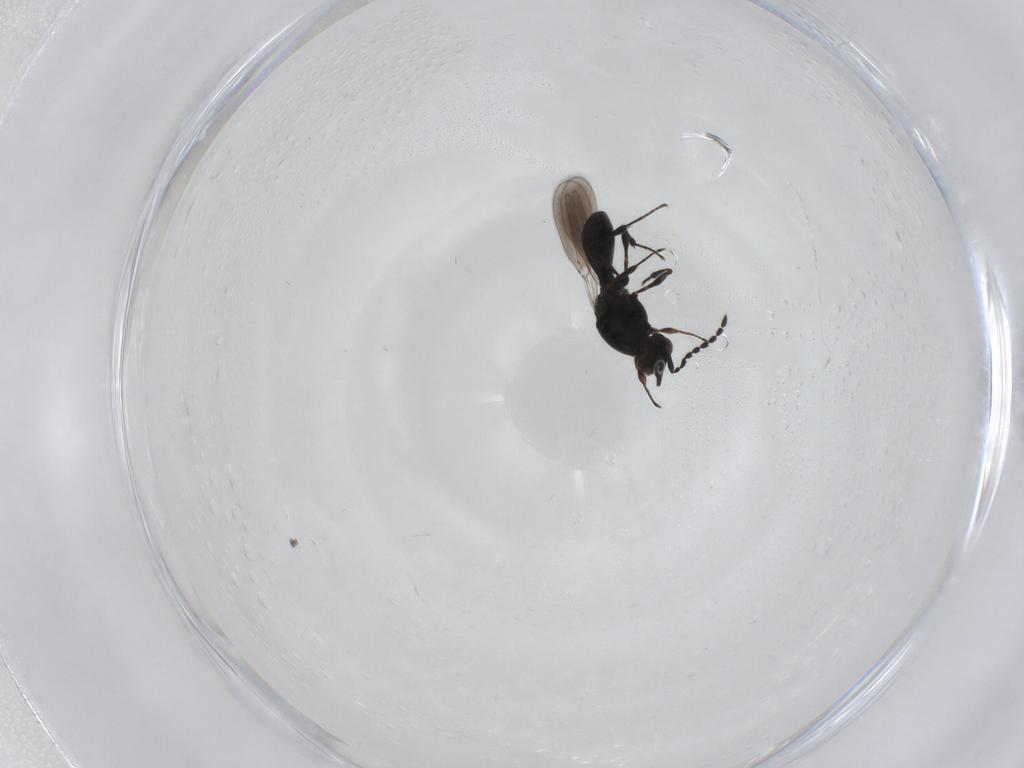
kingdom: Animalia
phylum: Arthropoda
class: Insecta
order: Hymenoptera
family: Platygastridae
